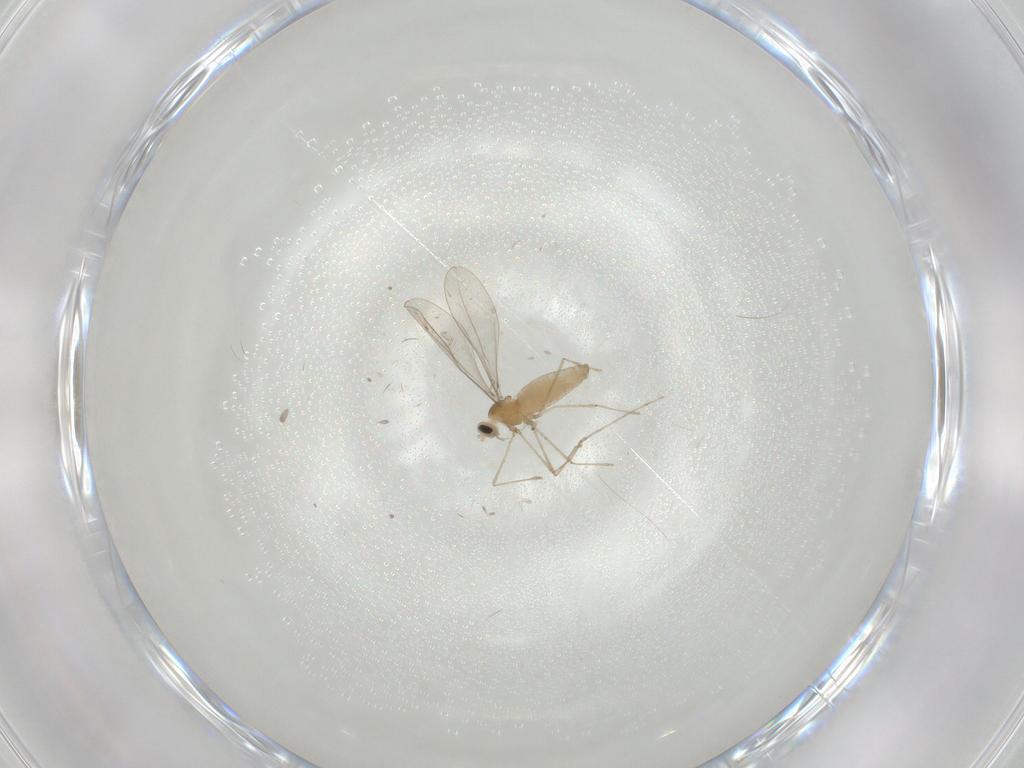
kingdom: Animalia
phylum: Arthropoda
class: Insecta
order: Diptera
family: Cecidomyiidae
